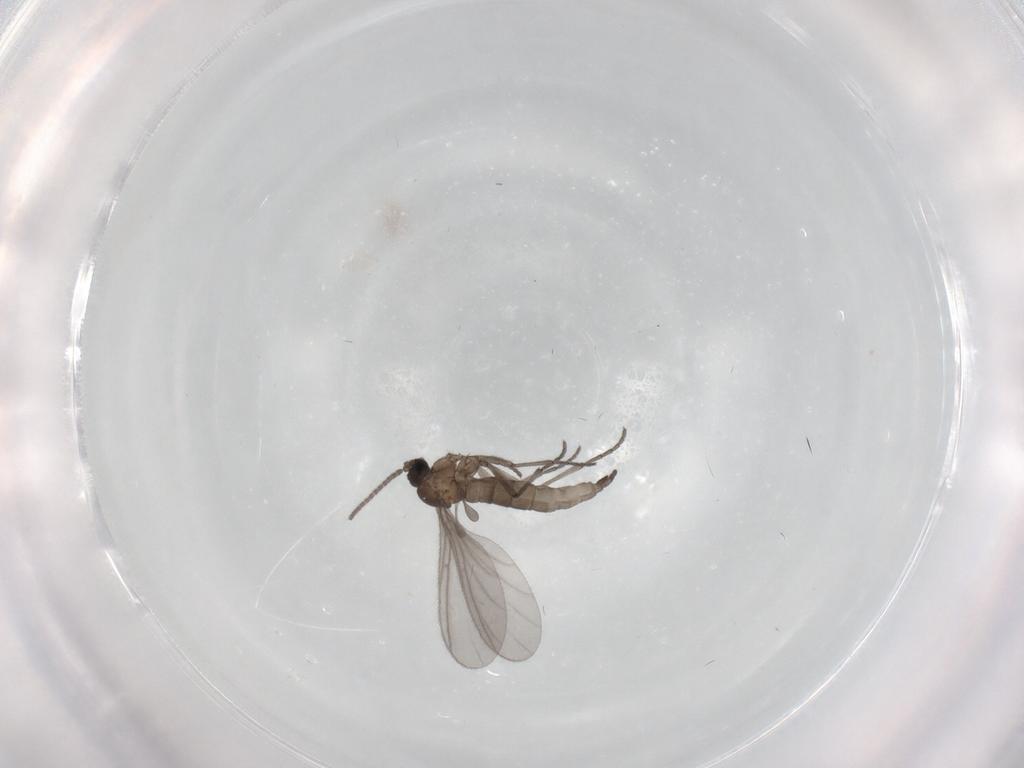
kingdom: Animalia
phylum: Arthropoda
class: Insecta
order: Diptera
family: Sciaridae
